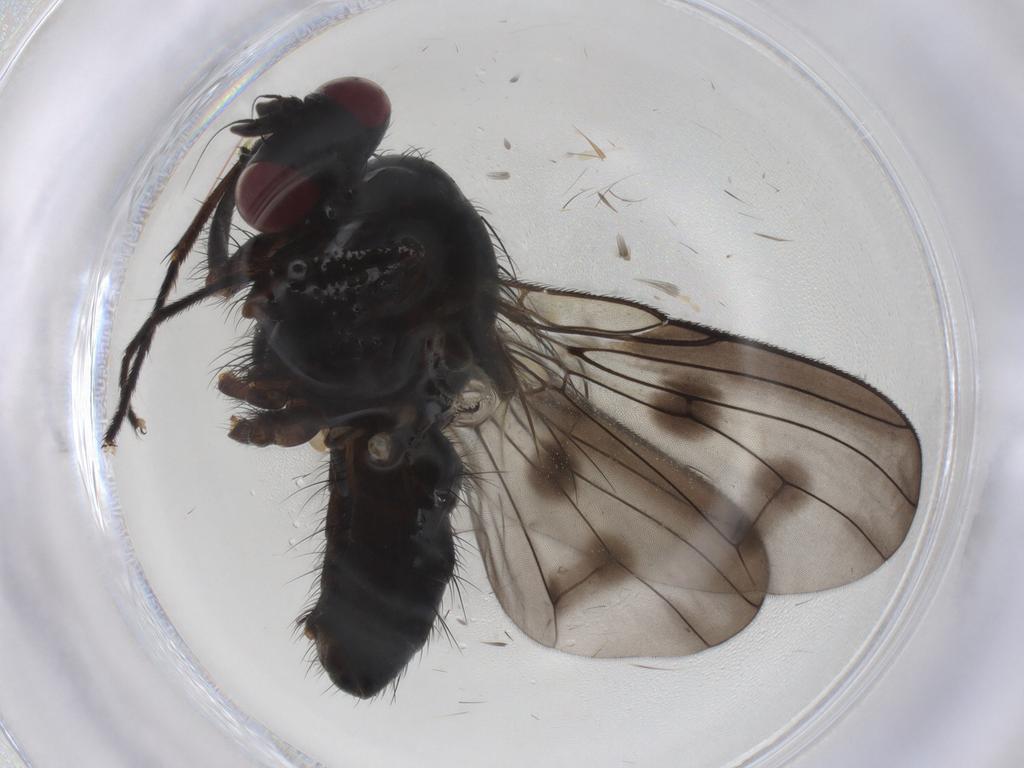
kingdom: Animalia
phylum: Arthropoda
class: Insecta
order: Diptera
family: Muscidae
